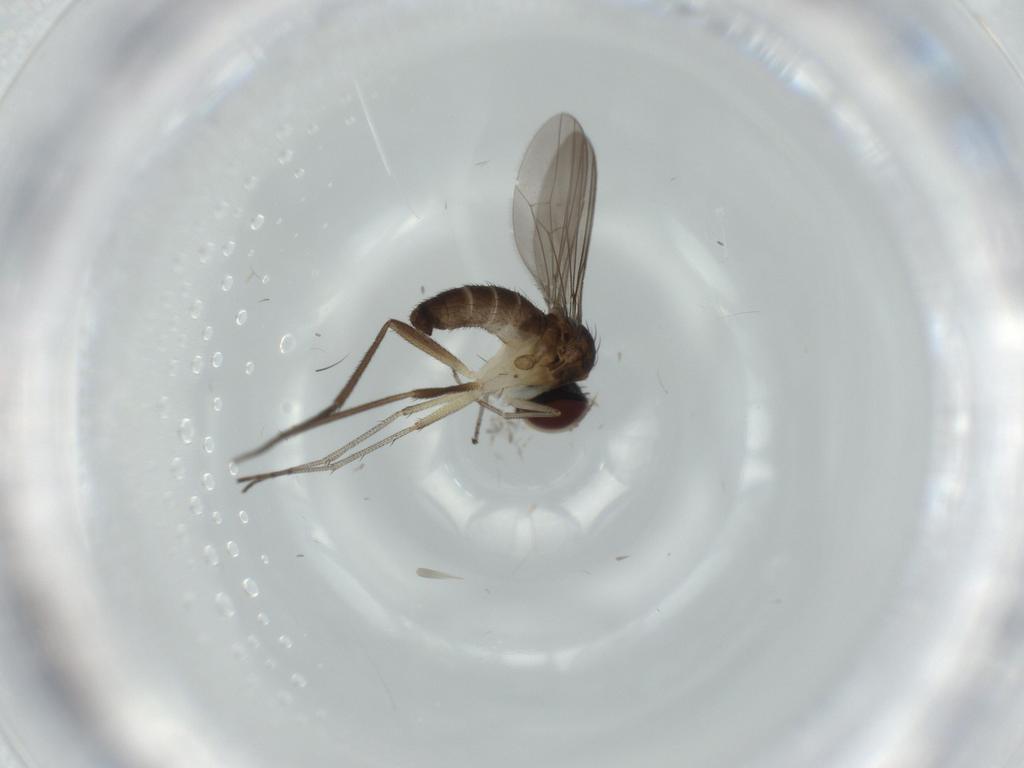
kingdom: Animalia
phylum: Arthropoda
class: Insecta
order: Diptera
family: Dolichopodidae
